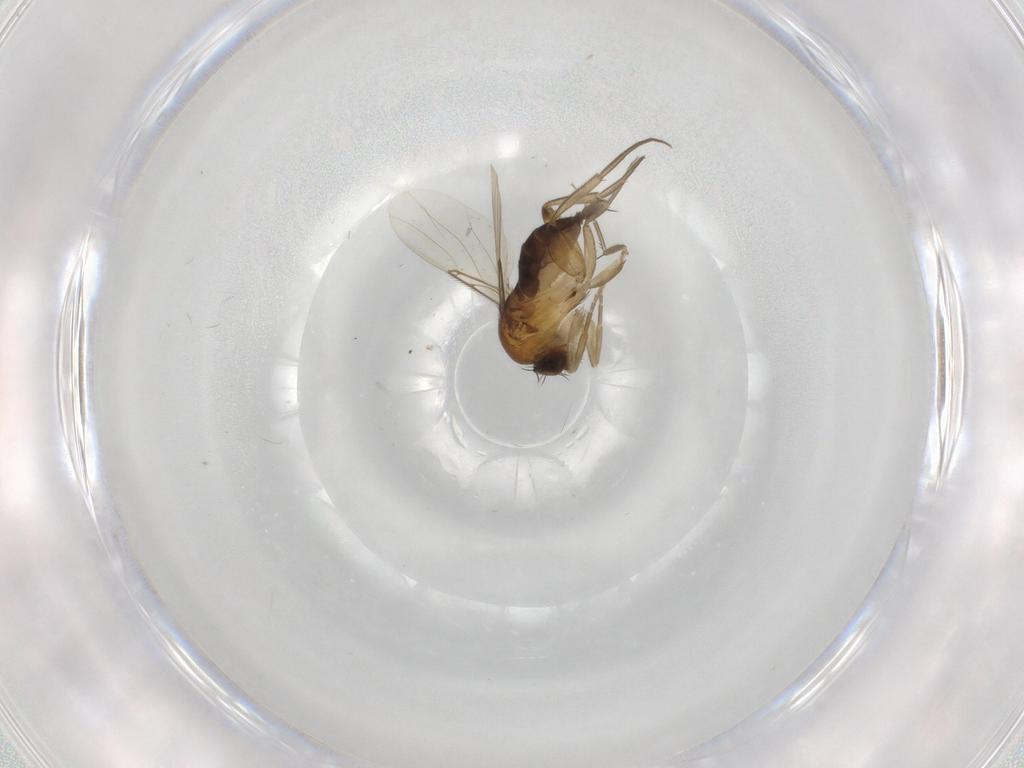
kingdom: Animalia
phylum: Arthropoda
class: Insecta
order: Diptera
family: Phoridae
